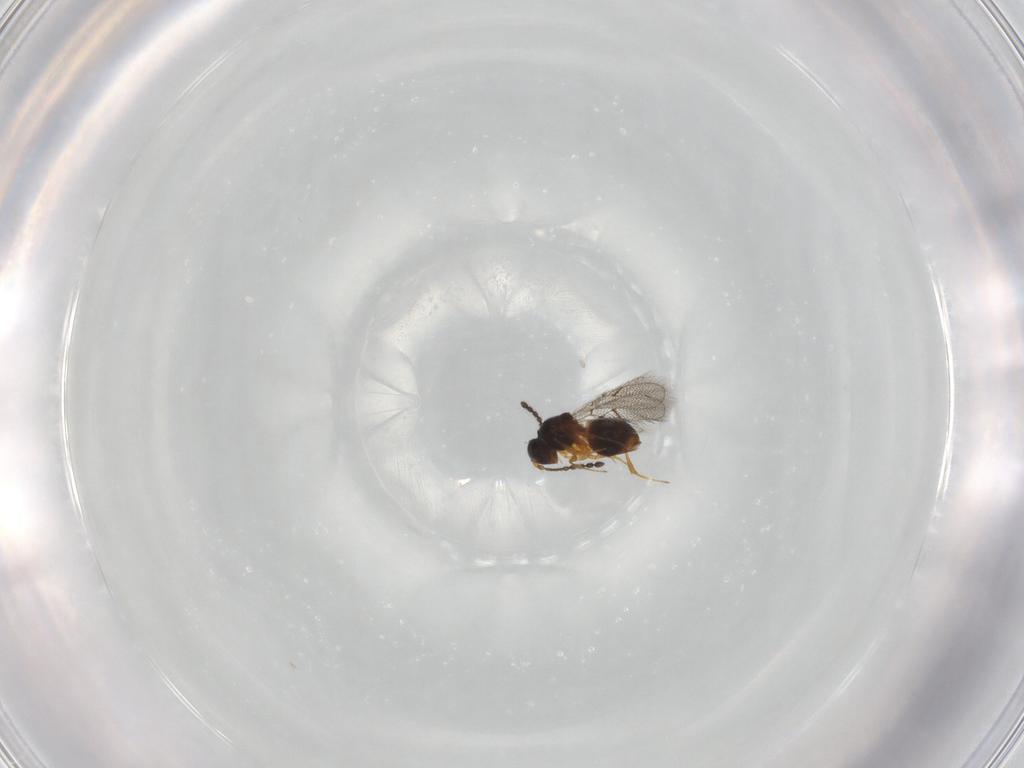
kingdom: Animalia
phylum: Arthropoda
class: Insecta
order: Hymenoptera
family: Figitidae
